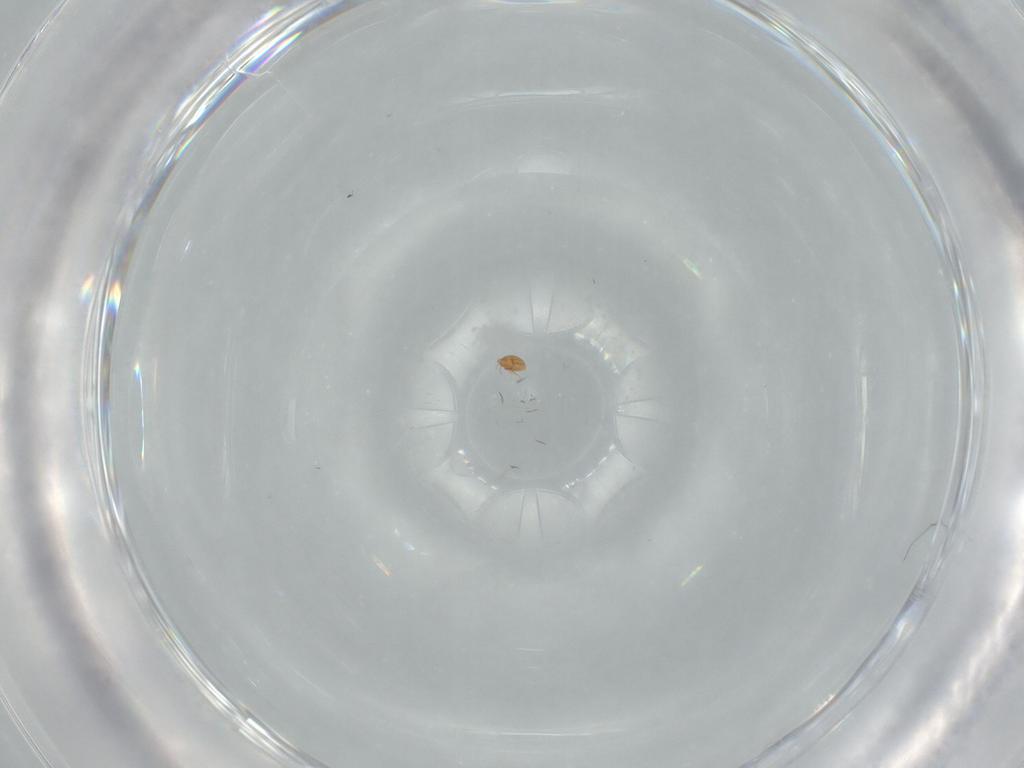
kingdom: Animalia
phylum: Arthropoda
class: Arachnida
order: Trombidiformes
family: Pygmephoridae
